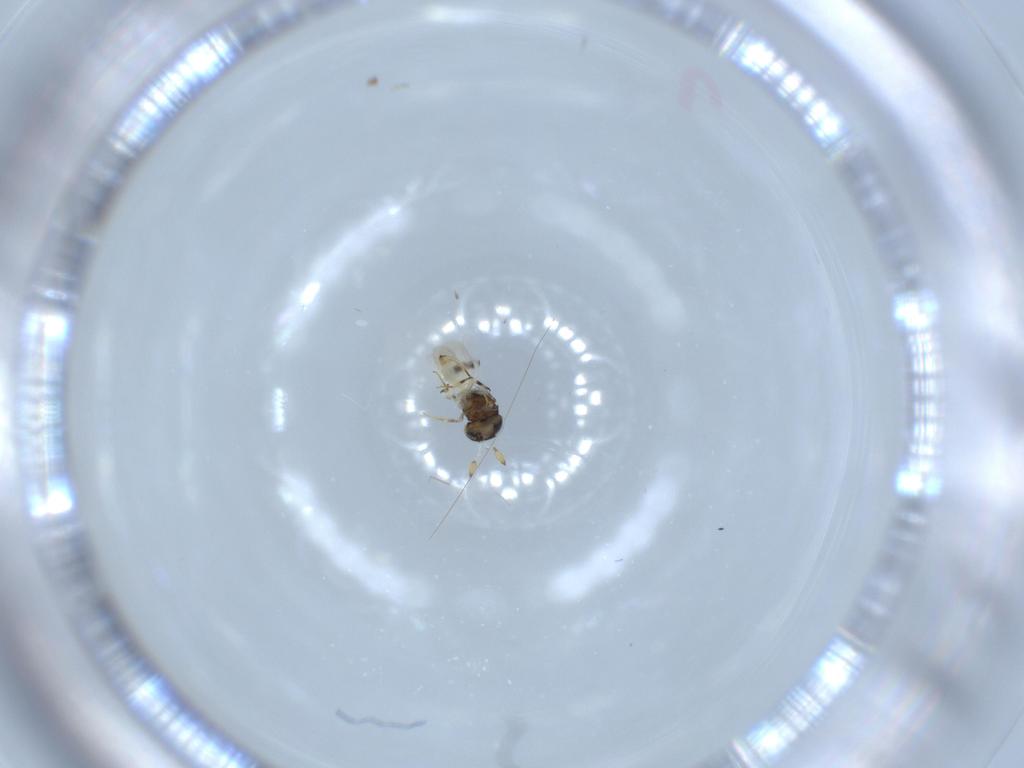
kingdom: Animalia
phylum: Arthropoda
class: Insecta
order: Hymenoptera
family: Scelionidae
